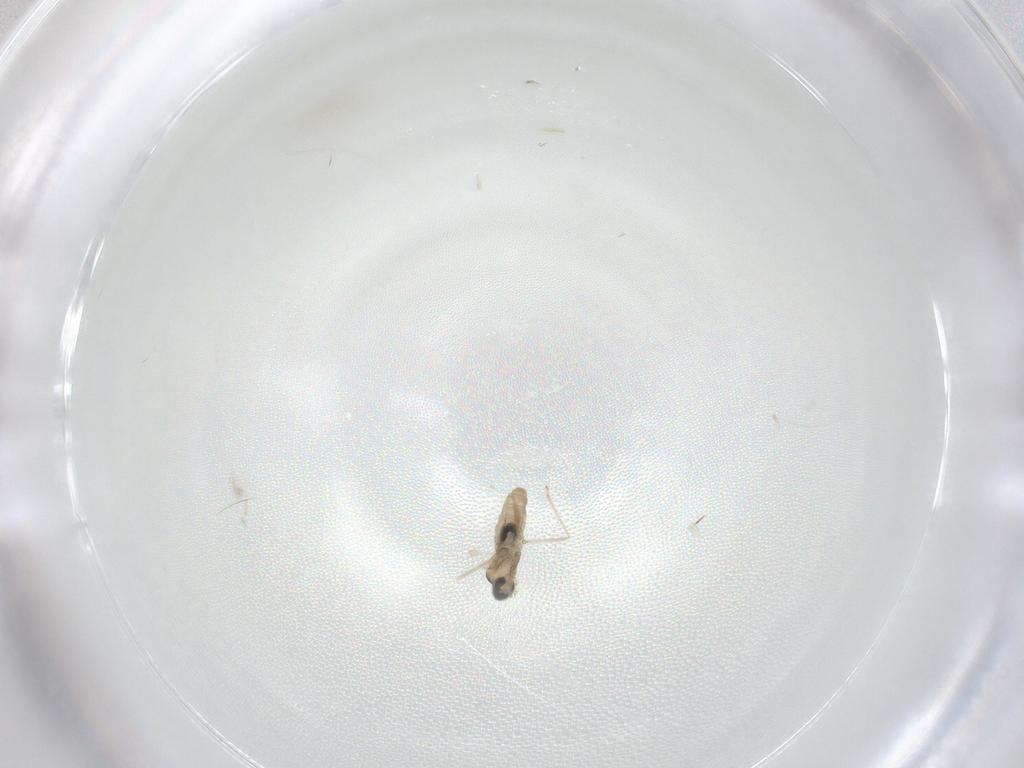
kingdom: Animalia
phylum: Arthropoda
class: Insecta
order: Diptera
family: Cecidomyiidae
